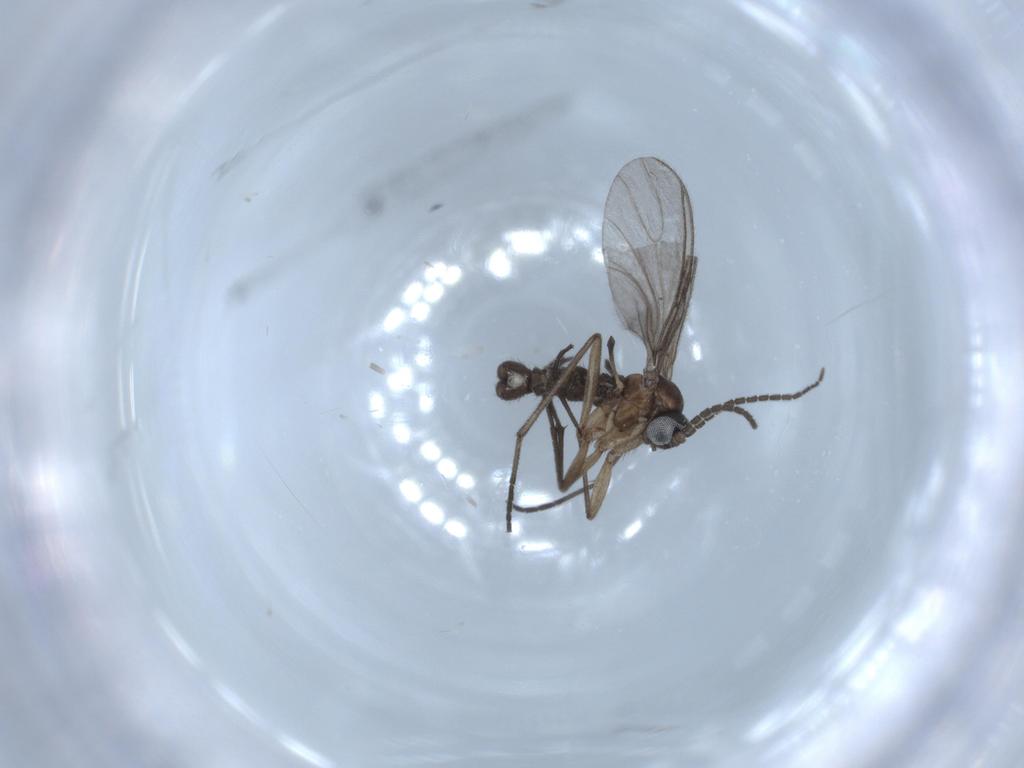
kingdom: Animalia
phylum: Arthropoda
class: Insecta
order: Diptera
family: Sciaridae
